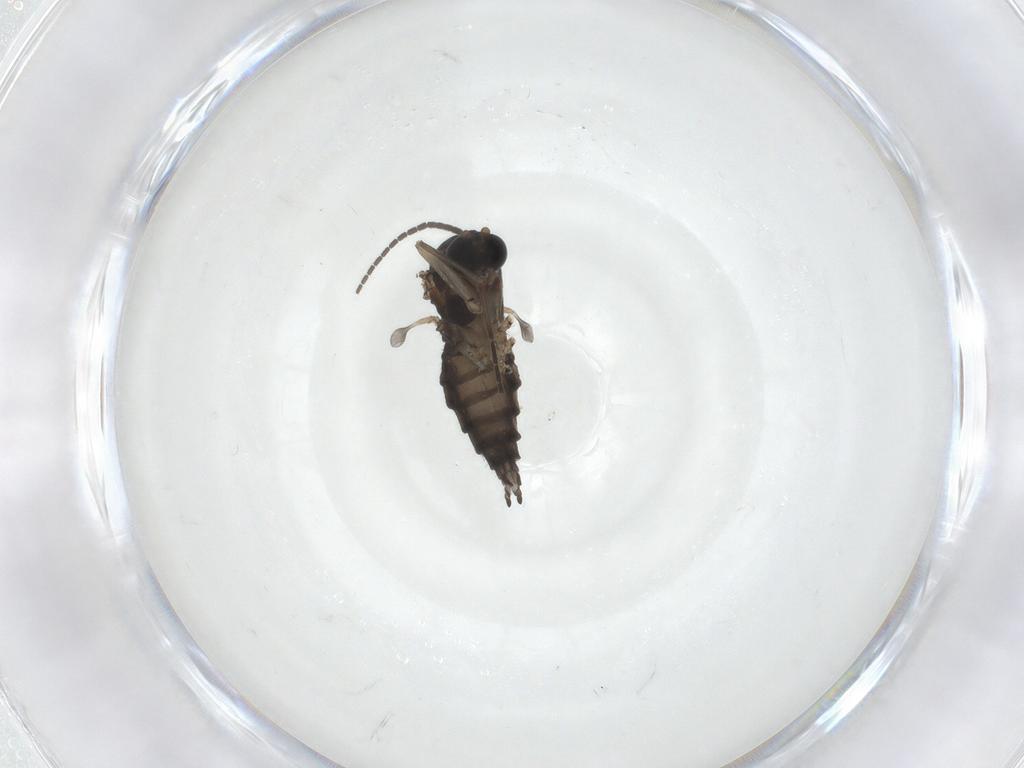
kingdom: Animalia
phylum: Arthropoda
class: Insecta
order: Diptera
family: Sciaridae
